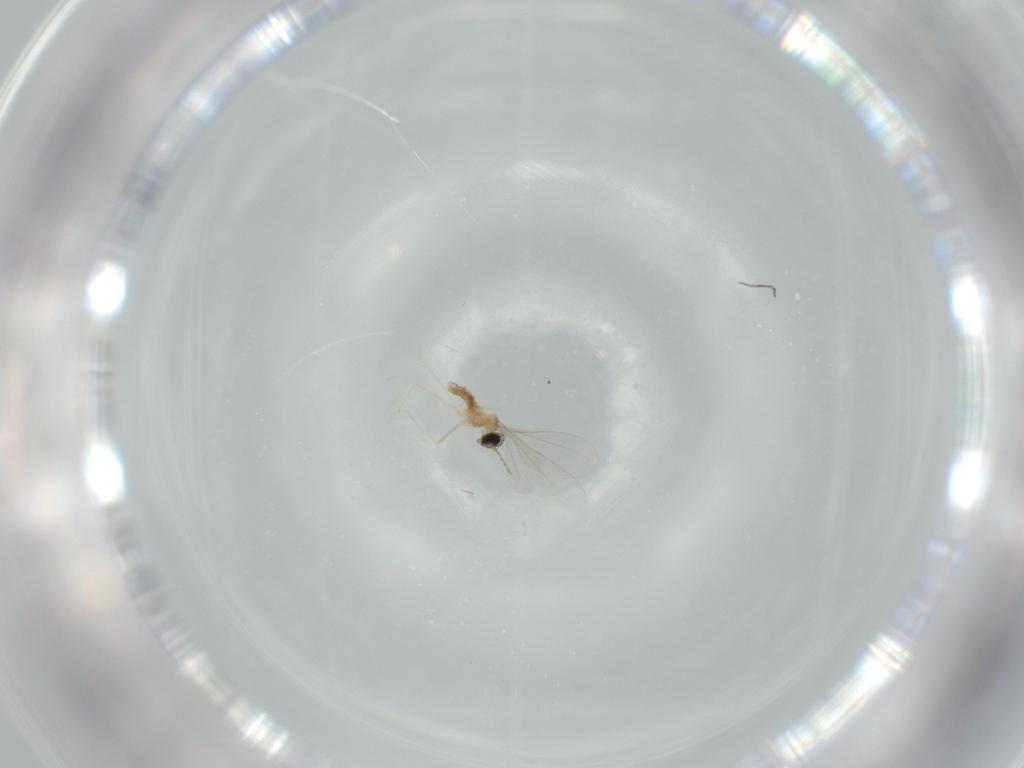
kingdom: Animalia
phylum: Arthropoda
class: Insecta
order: Diptera
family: Cecidomyiidae
